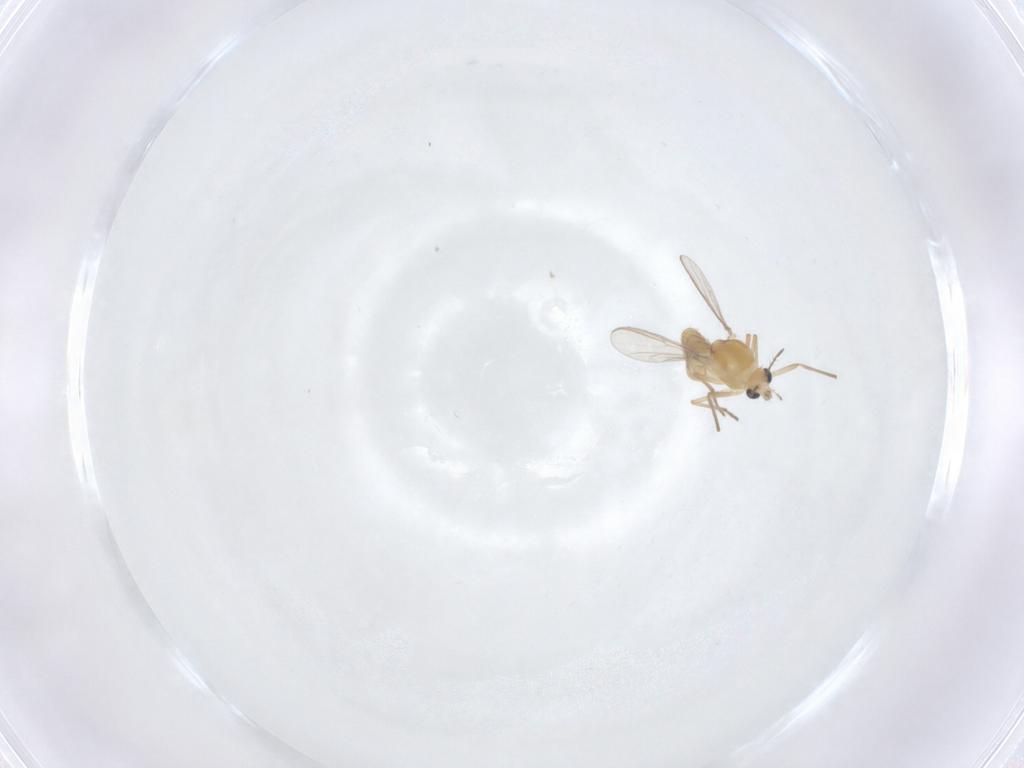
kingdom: Animalia
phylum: Arthropoda
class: Insecta
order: Diptera
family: Chironomidae
